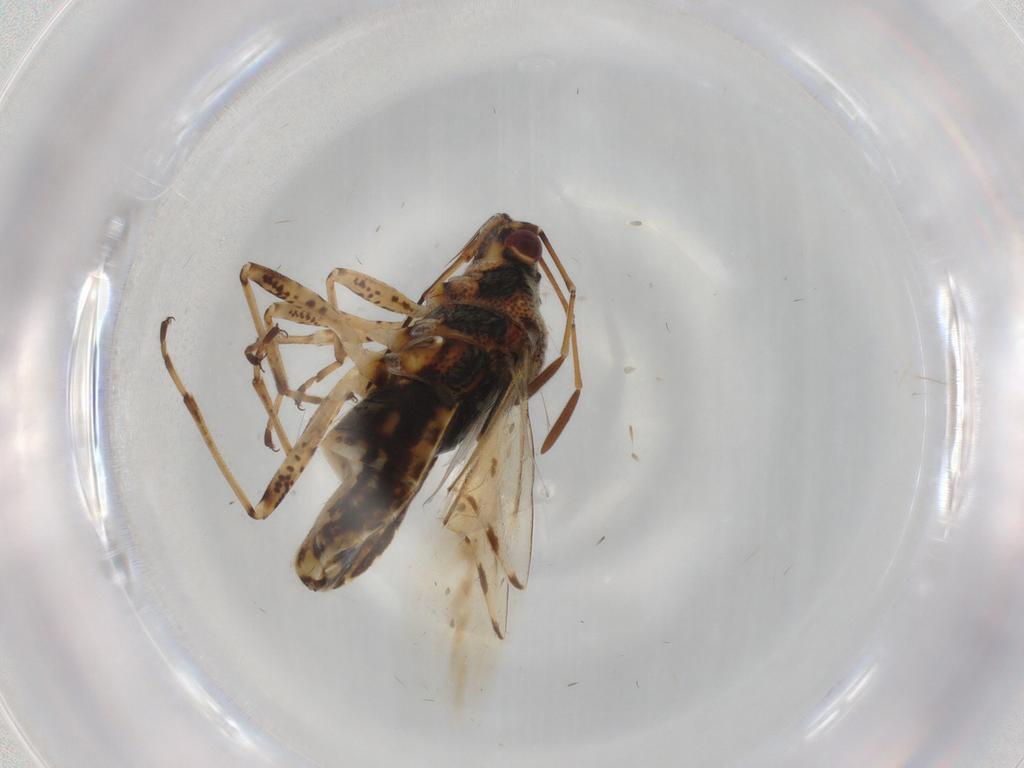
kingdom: Animalia
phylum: Arthropoda
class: Insecta
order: Hemiptera
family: Lygaeidae
